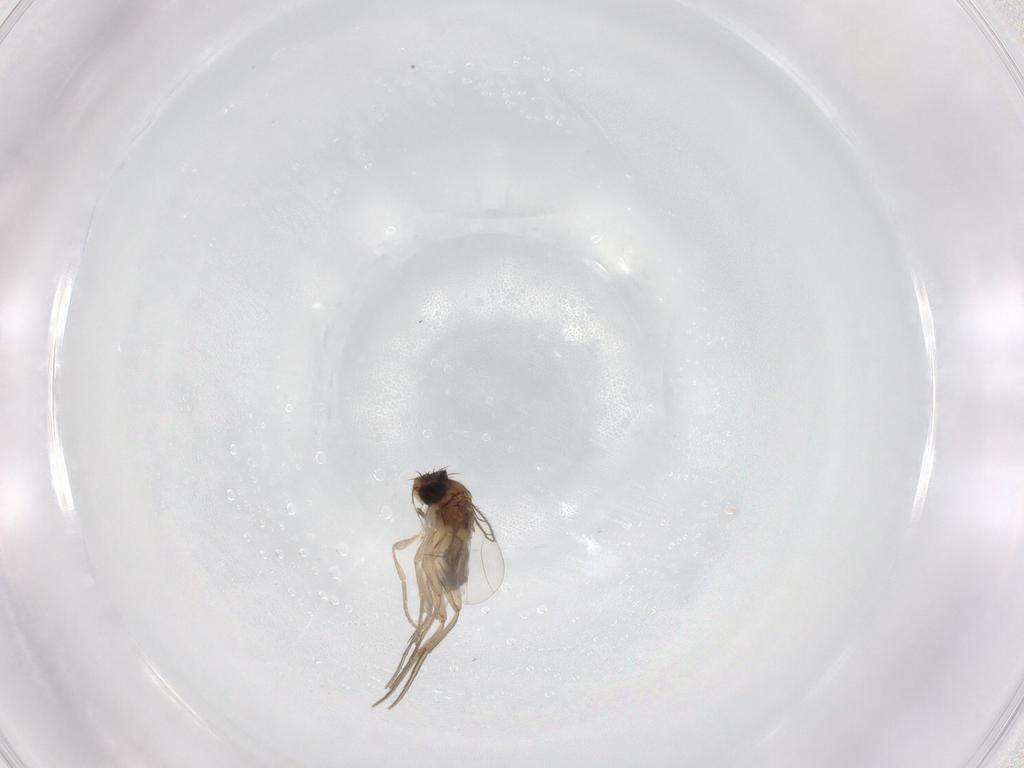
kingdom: Animalia
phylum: Arthropoda
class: Insecta
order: Diptera
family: Phoridae
